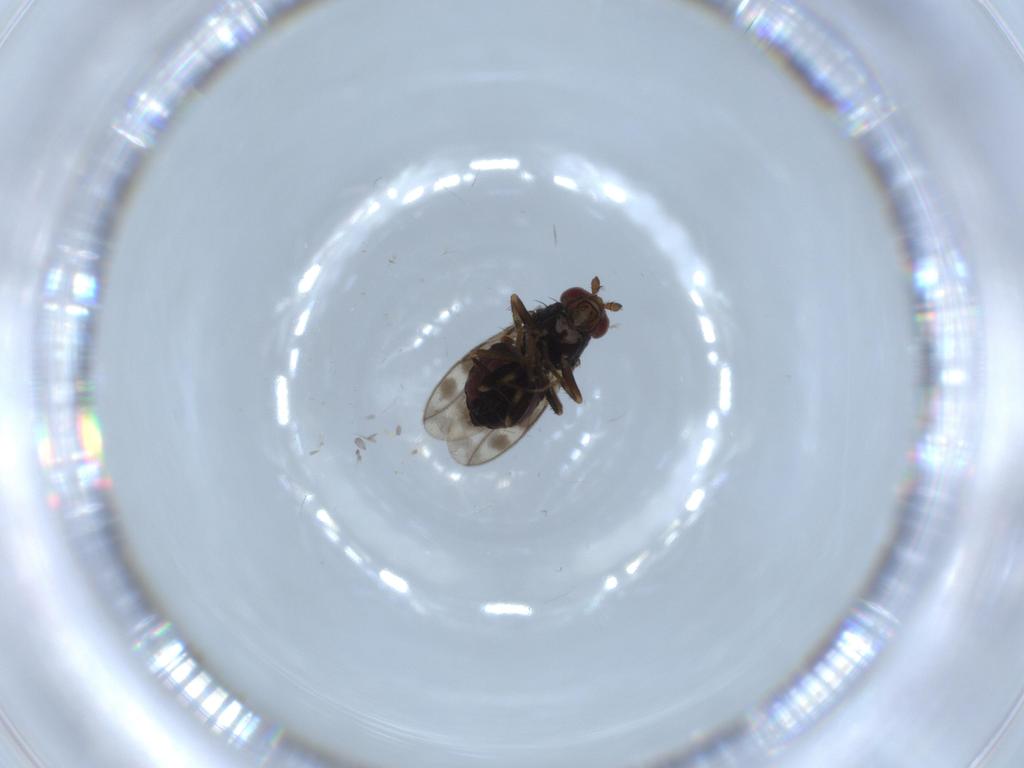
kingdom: Animalia
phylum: Arthropoda
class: Insecta
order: Diptera
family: Sphaeroceridae
